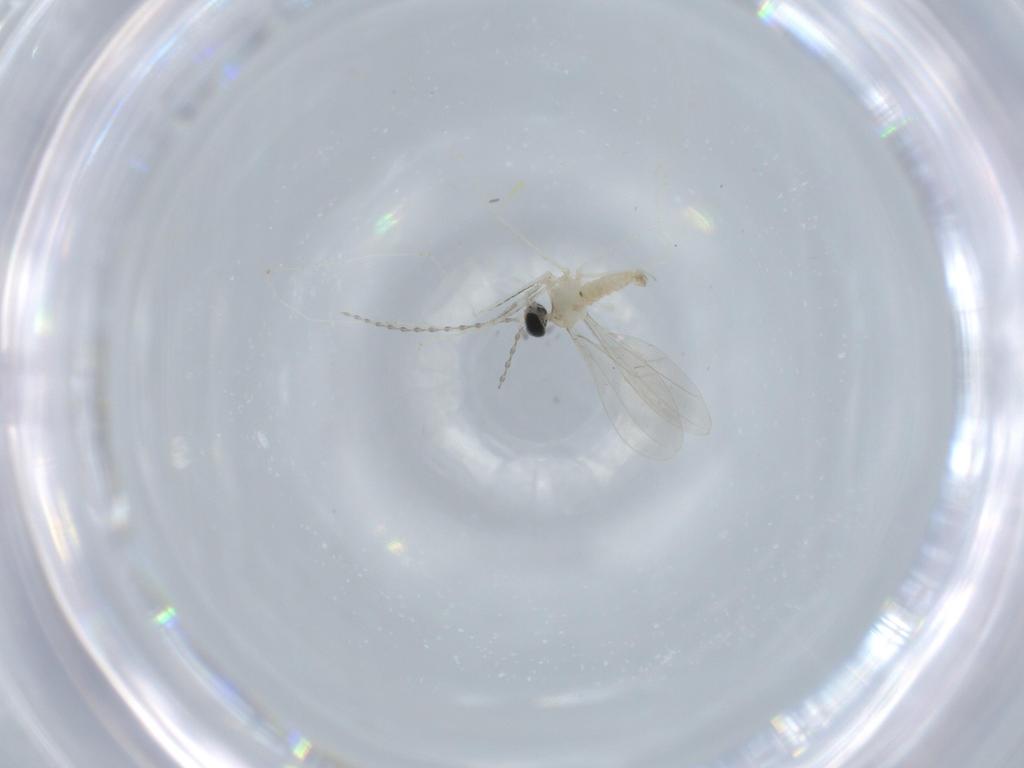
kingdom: Animalia
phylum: Arthropoda
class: Insecta
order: Diptera
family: Cecidomyiidae
